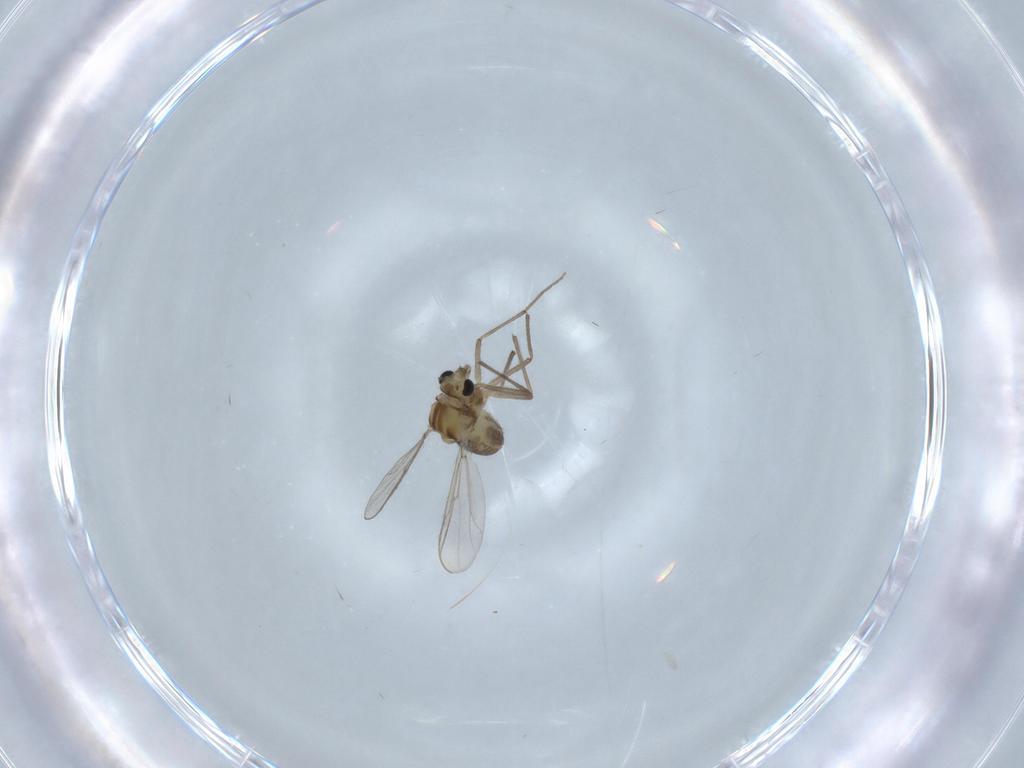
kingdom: Animalia
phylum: Arthropoda
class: Insecta
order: Diptera
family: Chironomidae
